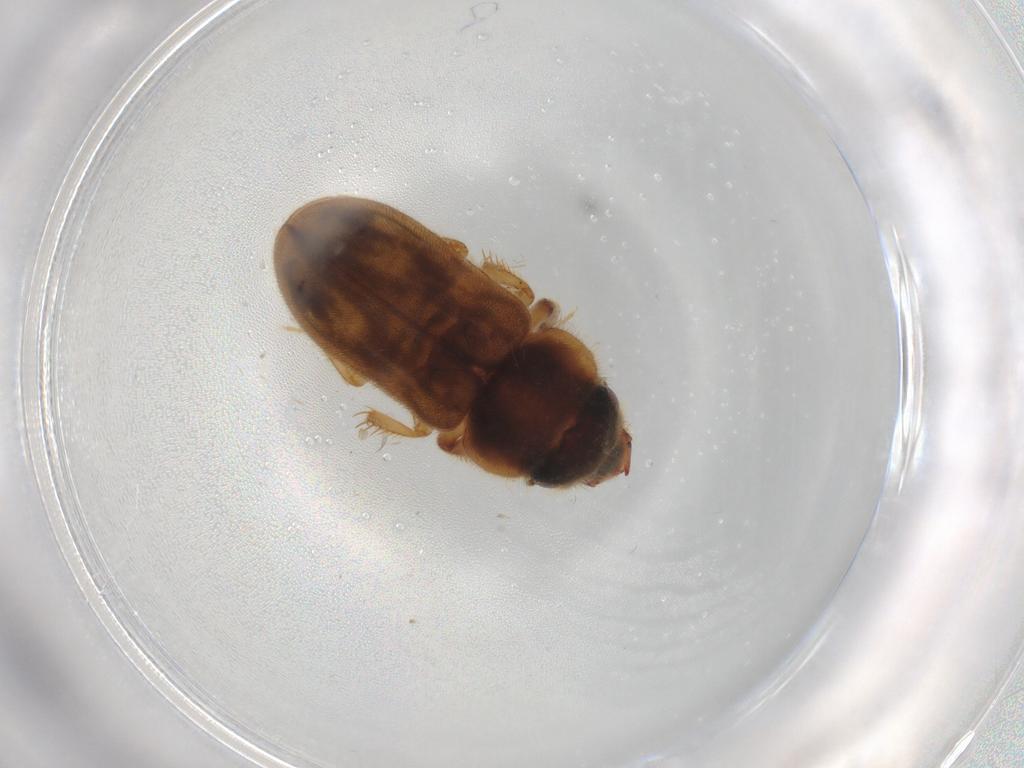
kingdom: Animalia
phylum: Arthropoda
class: Insecta
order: Coleoptera
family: Heteroceridae
